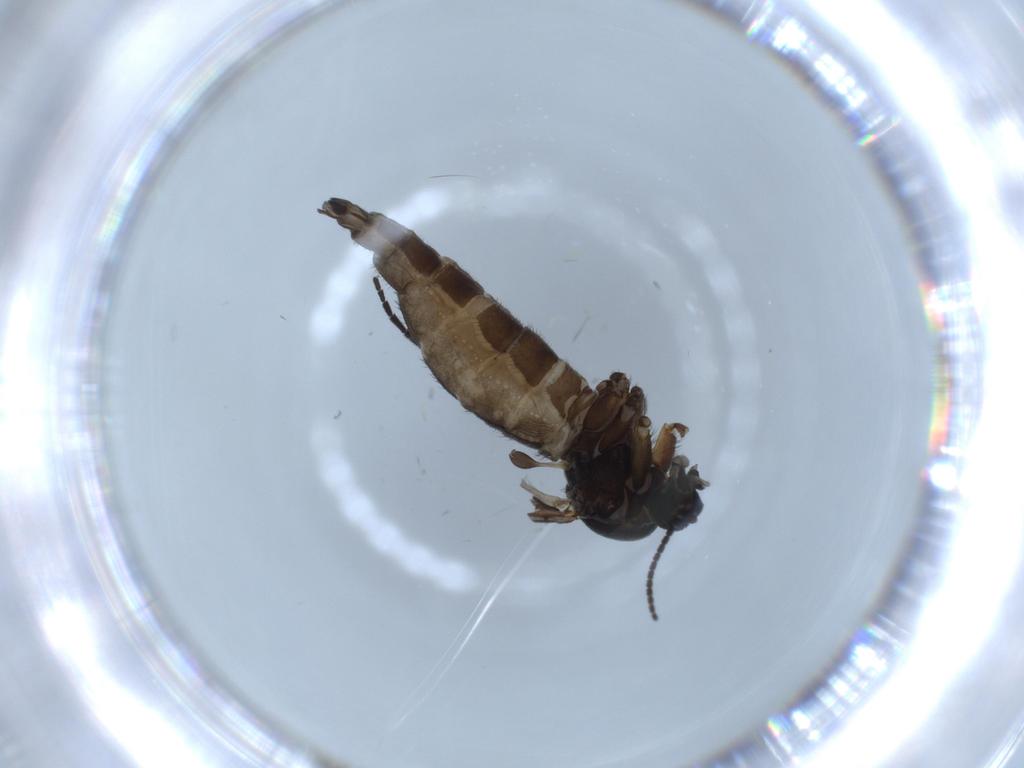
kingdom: Animalia
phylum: Arthropoda
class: Insecta
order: Diptera
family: Sciaridae
